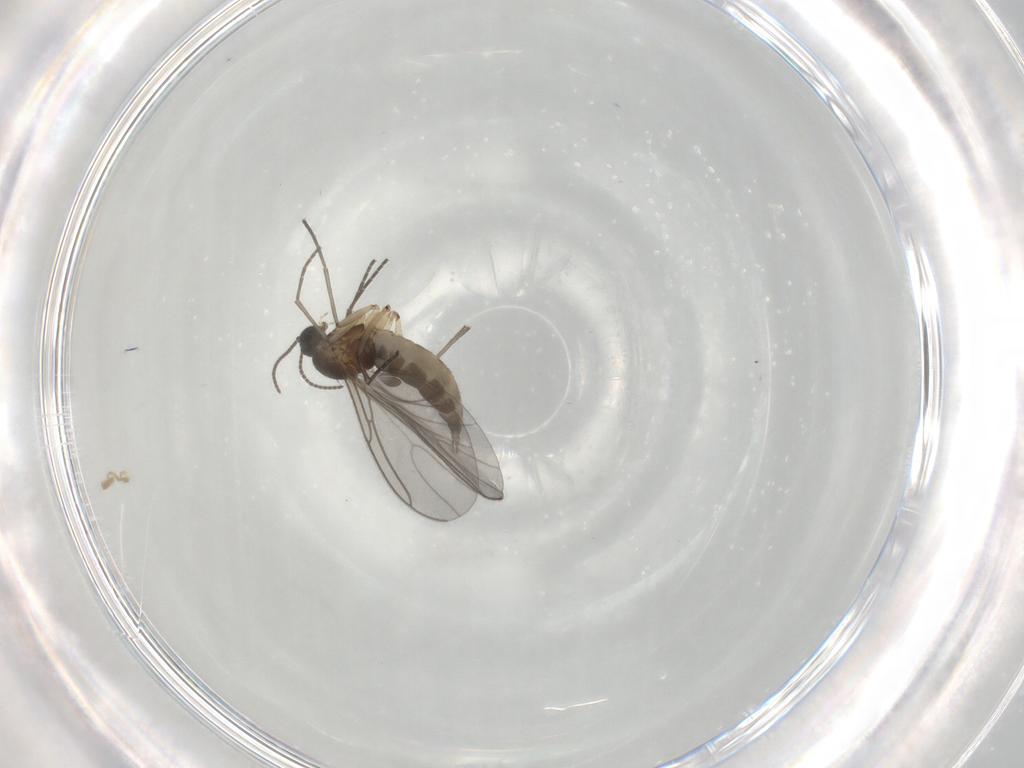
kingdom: Animalia
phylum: Arthropoda
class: Insecta
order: Diptera
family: Sciaridae
